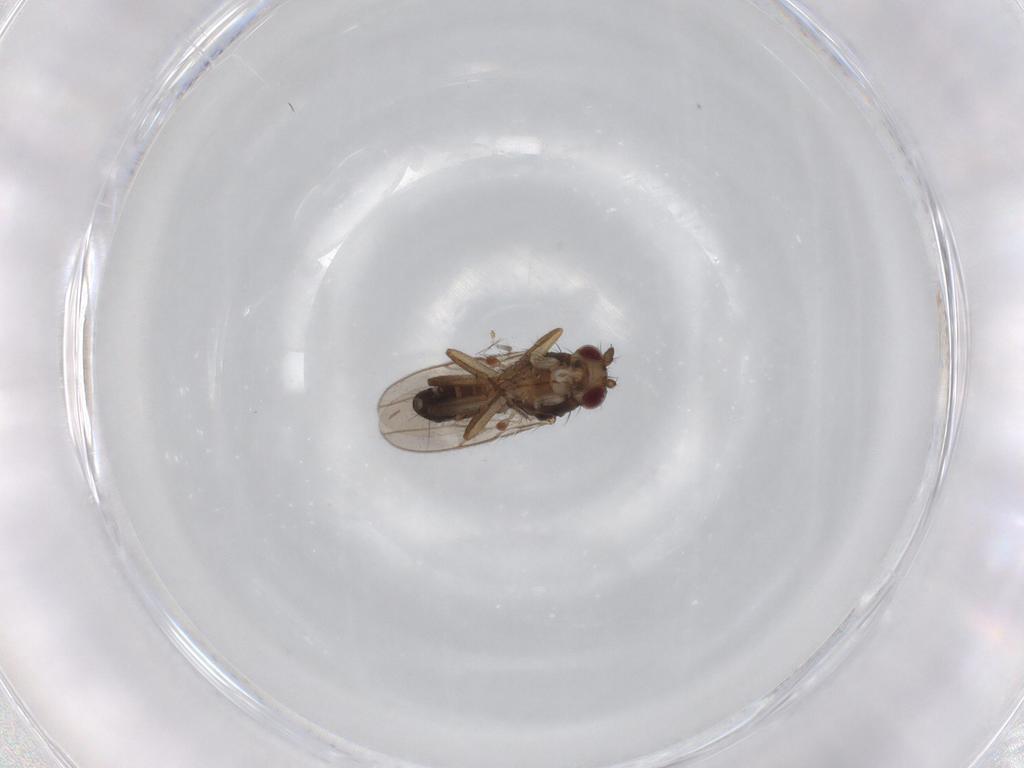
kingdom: Animalia
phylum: Arthropoda
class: Insecta
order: Diptera
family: Sphaeroceridae
